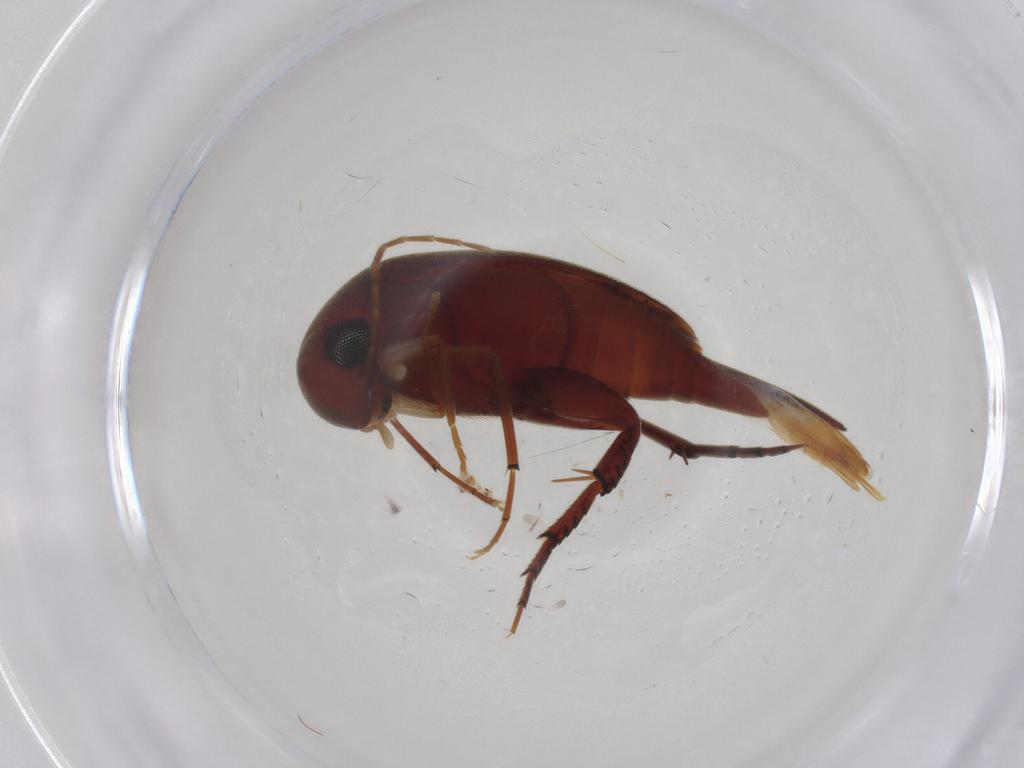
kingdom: Animalia
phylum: Arthropoda
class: Insecta
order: Coleoptera
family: Mordellidae
